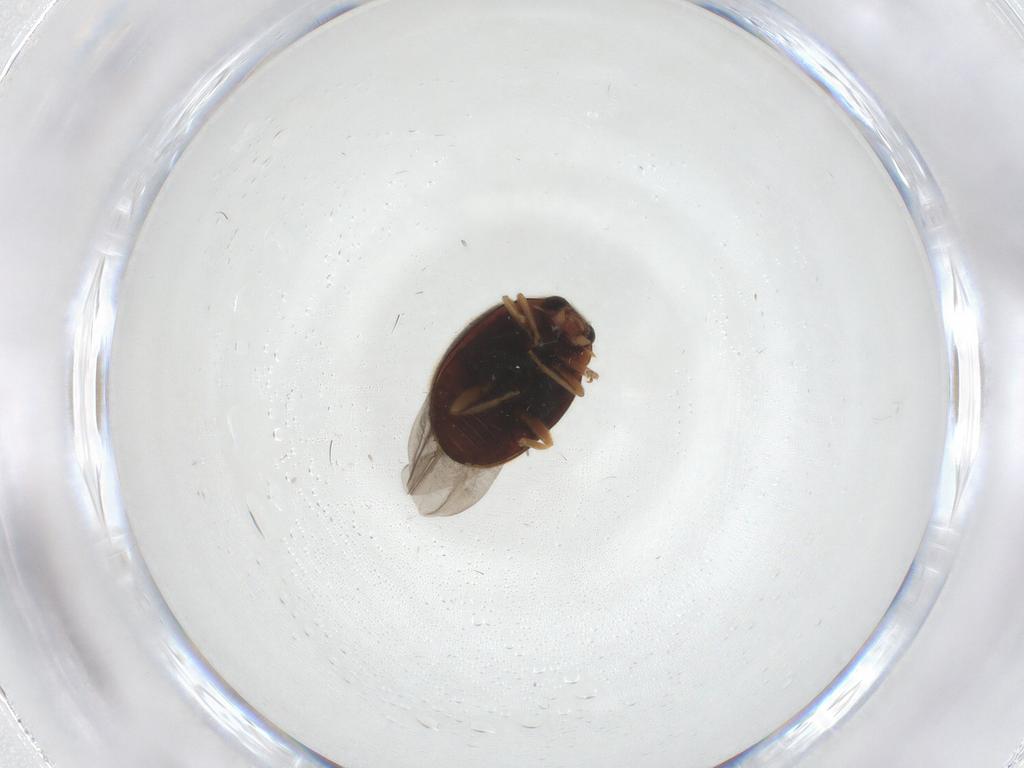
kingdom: Animalia
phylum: Arthropoda
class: Insecta
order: Coleoptera
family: Coccinellidae
